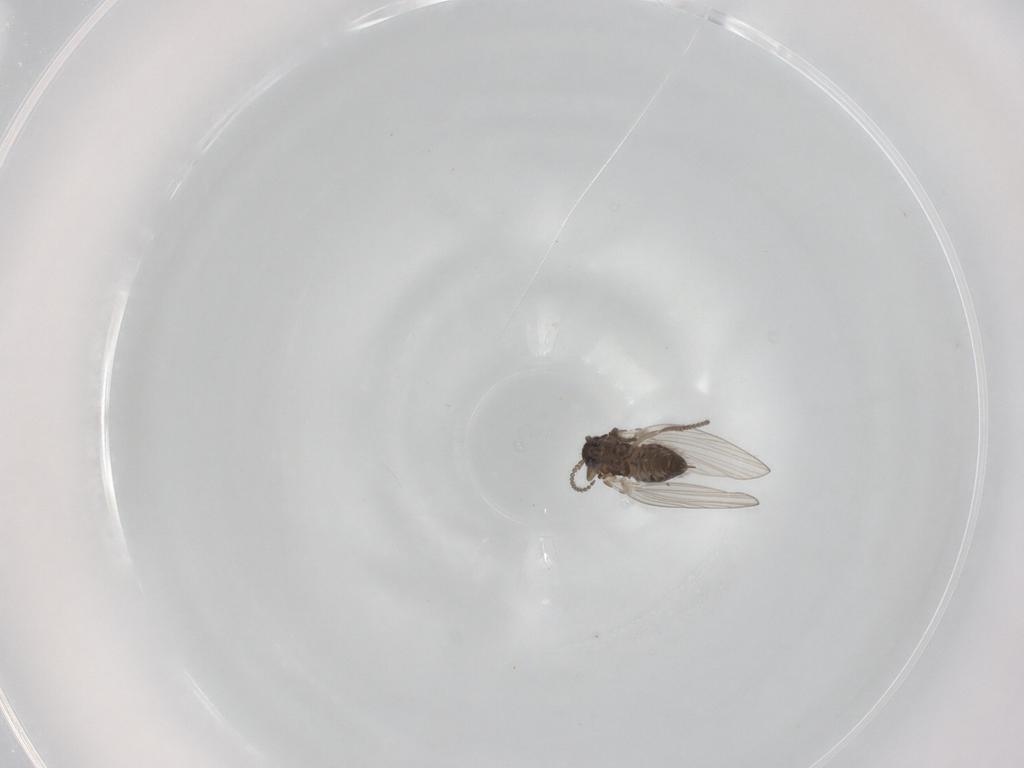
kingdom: Animalia
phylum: Arthropoda
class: Insecta
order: Diptera
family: Psychodidae
